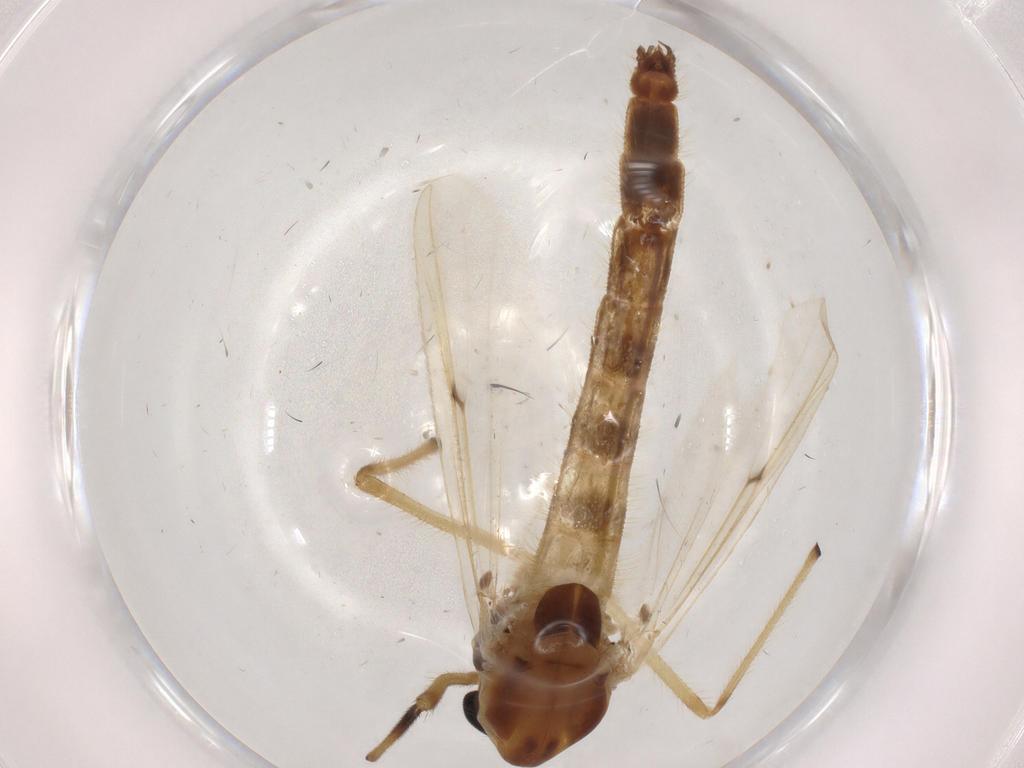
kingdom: Animalia
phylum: Arthropoda
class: Insecta
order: Diptera
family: Chironomidae
